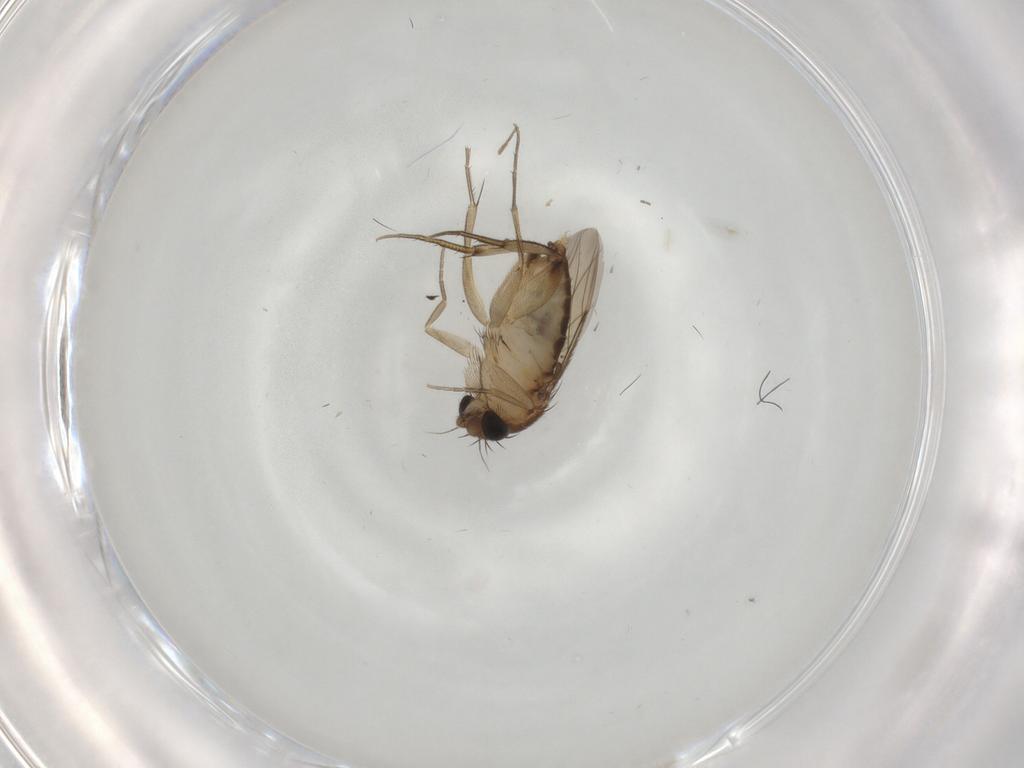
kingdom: Animalia
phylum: Arthropoda
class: Insecta
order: Diptera
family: Phoridae
